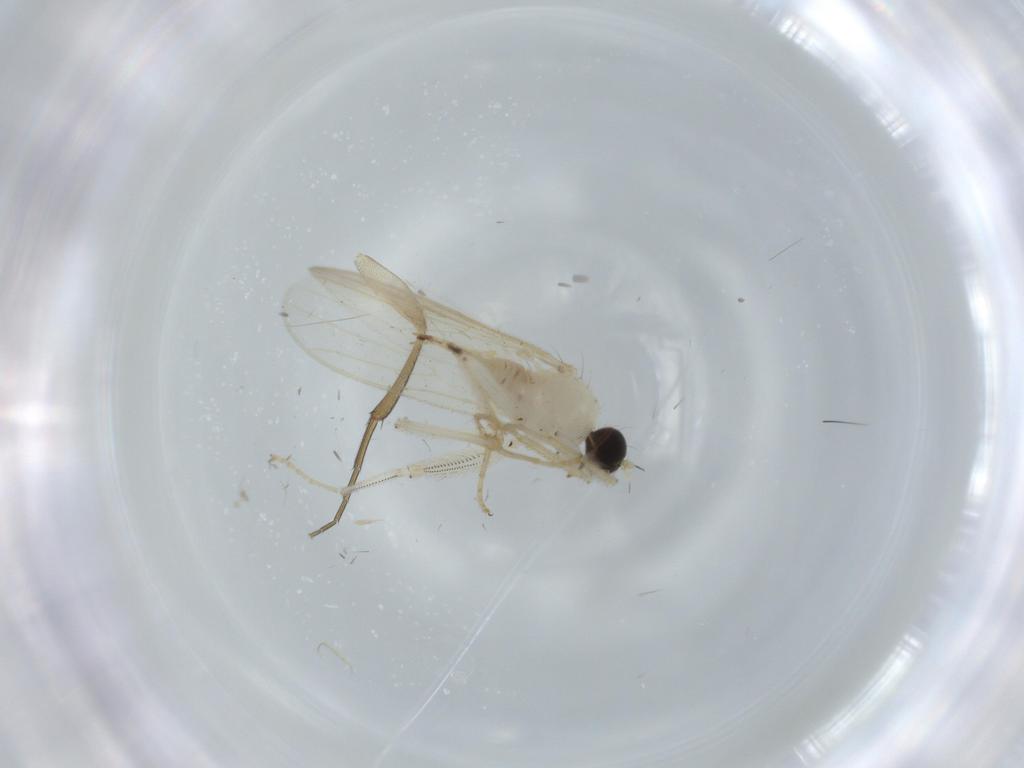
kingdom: Animalia
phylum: Arthropoda
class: Insecta
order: Diptera
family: Hybotidae
